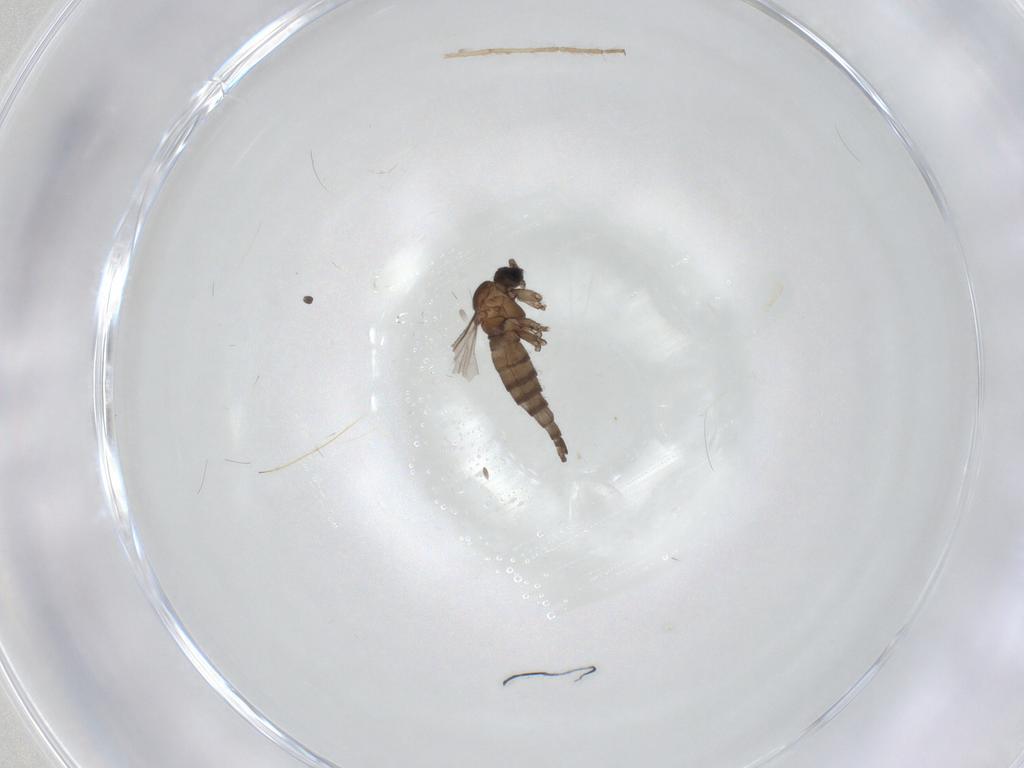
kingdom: Animalia
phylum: Arthropoda
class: Insecta
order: Diptera
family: Sciaridae
